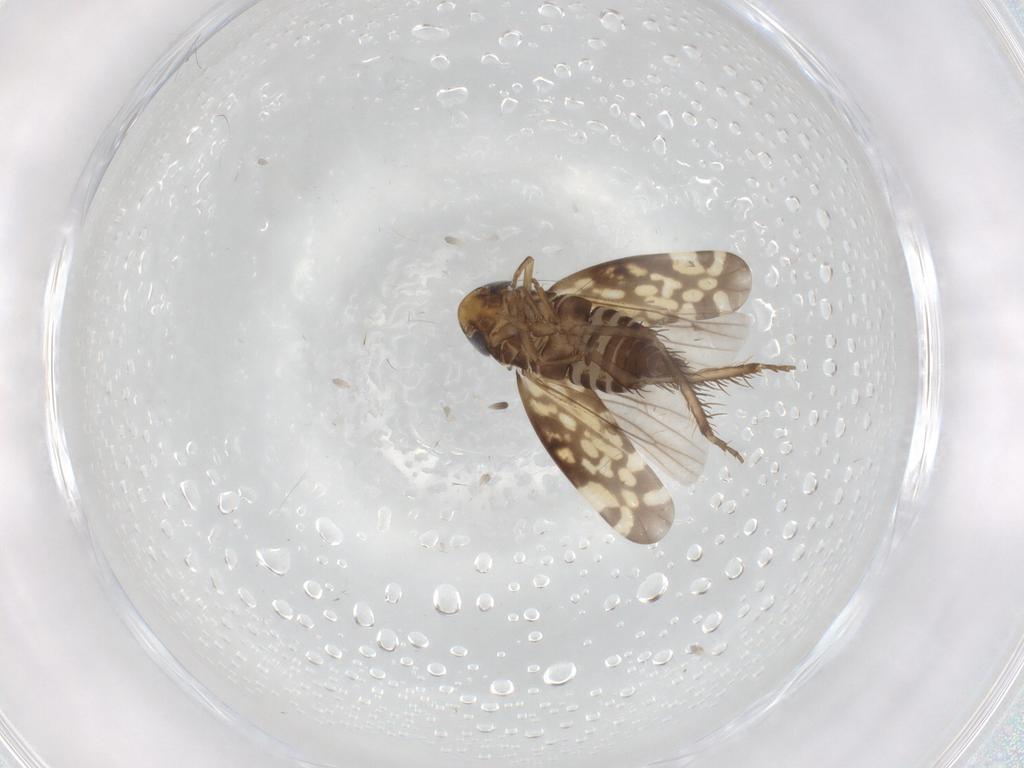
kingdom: Animalia
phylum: Arthropoda
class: Insecta
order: Hemiptera
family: Cicadellidae
